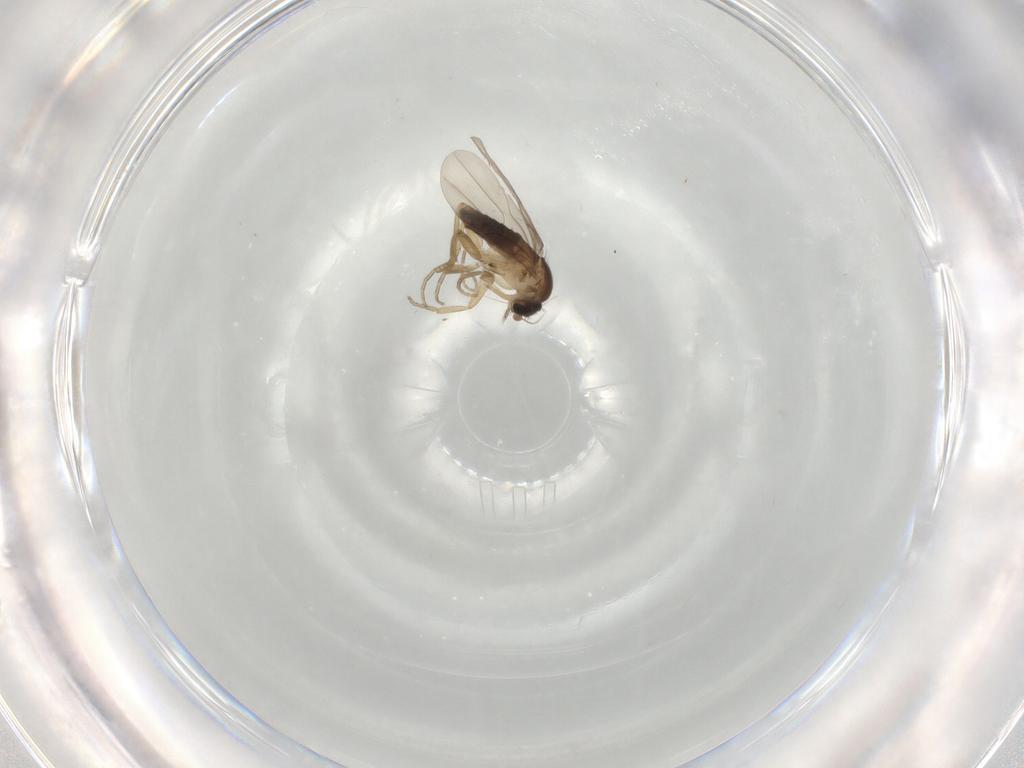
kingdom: Animalia
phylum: Arthropoda
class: Insecta
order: Diptera
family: Phoridae
